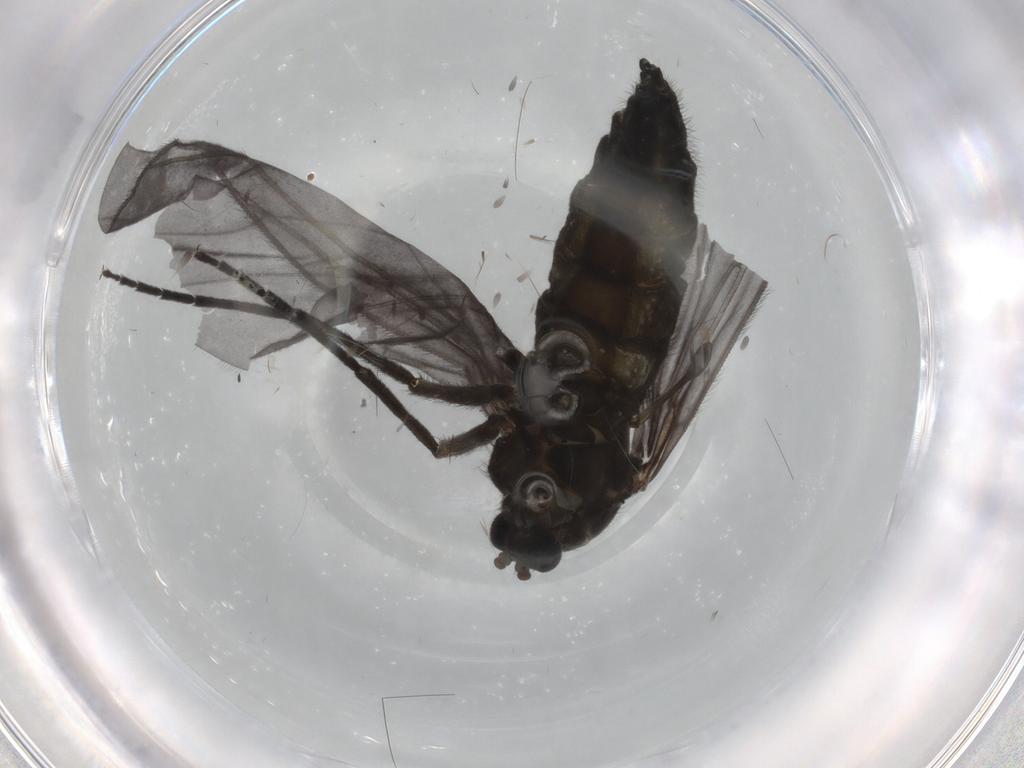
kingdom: Animalia
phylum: Arthropoda
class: Insecta
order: Diptera
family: Sciaridae
